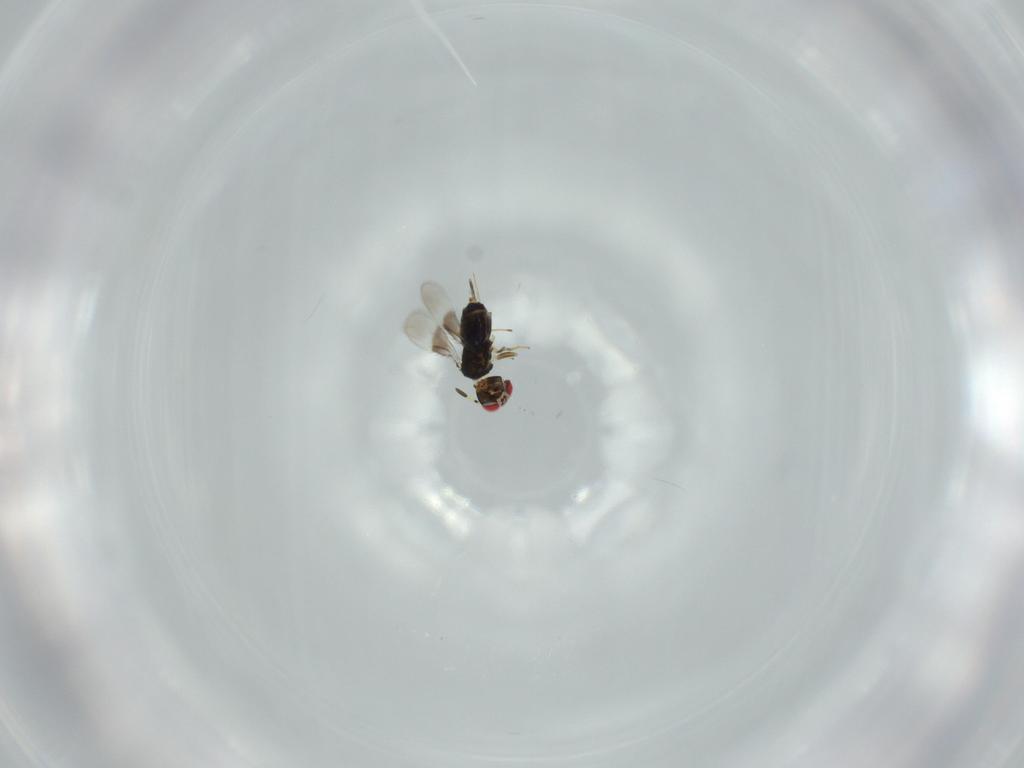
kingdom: Animalia
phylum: Arthropoda
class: Insecta
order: Hymenoptera
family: Azotidae
